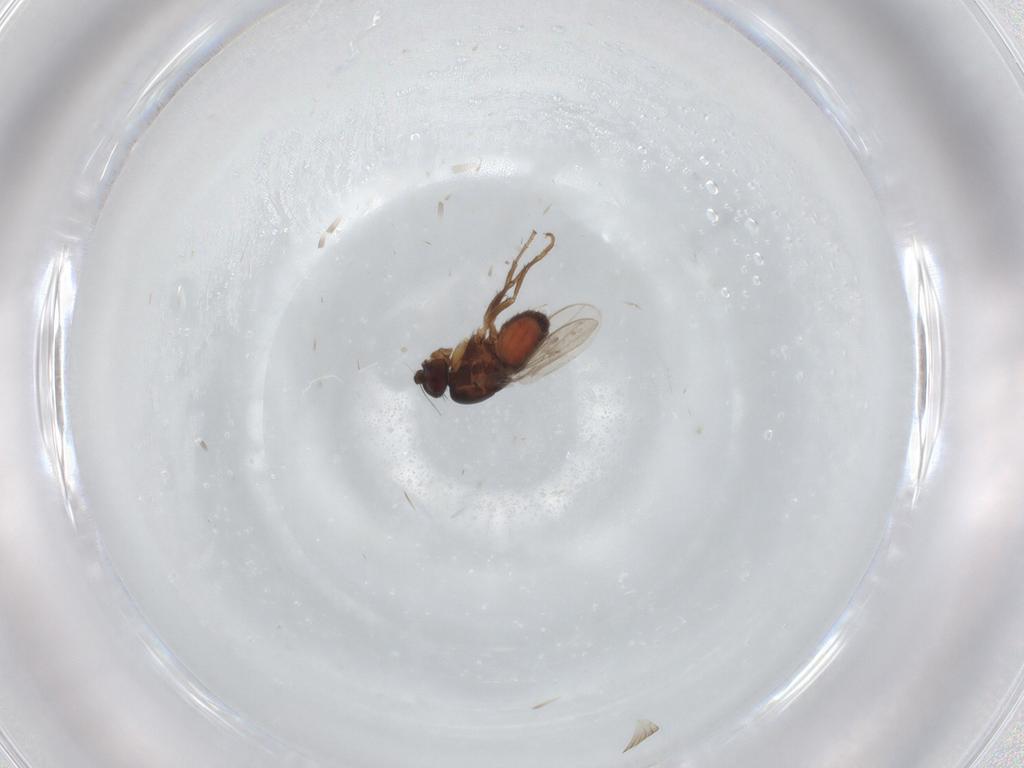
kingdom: Animalia
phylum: Arthropoda
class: Insecta
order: Diptera
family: Sphaeroceridae
